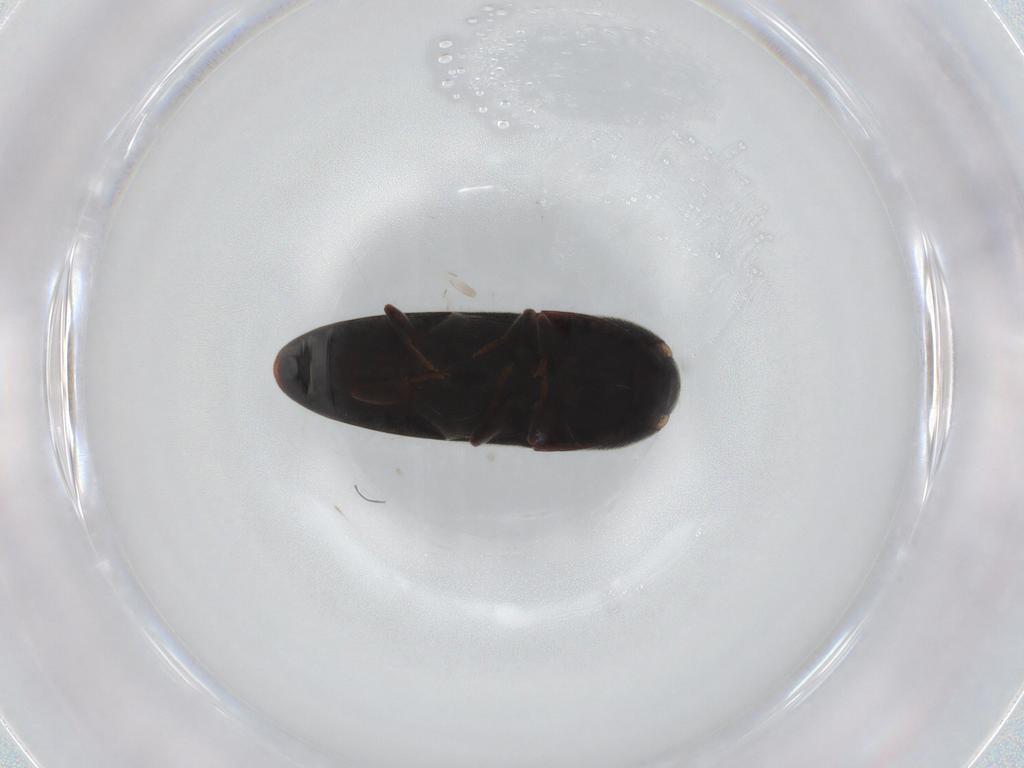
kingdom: Animalia
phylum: Arthropoda
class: Insecta
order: Coleoptera
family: Eucnemidae
